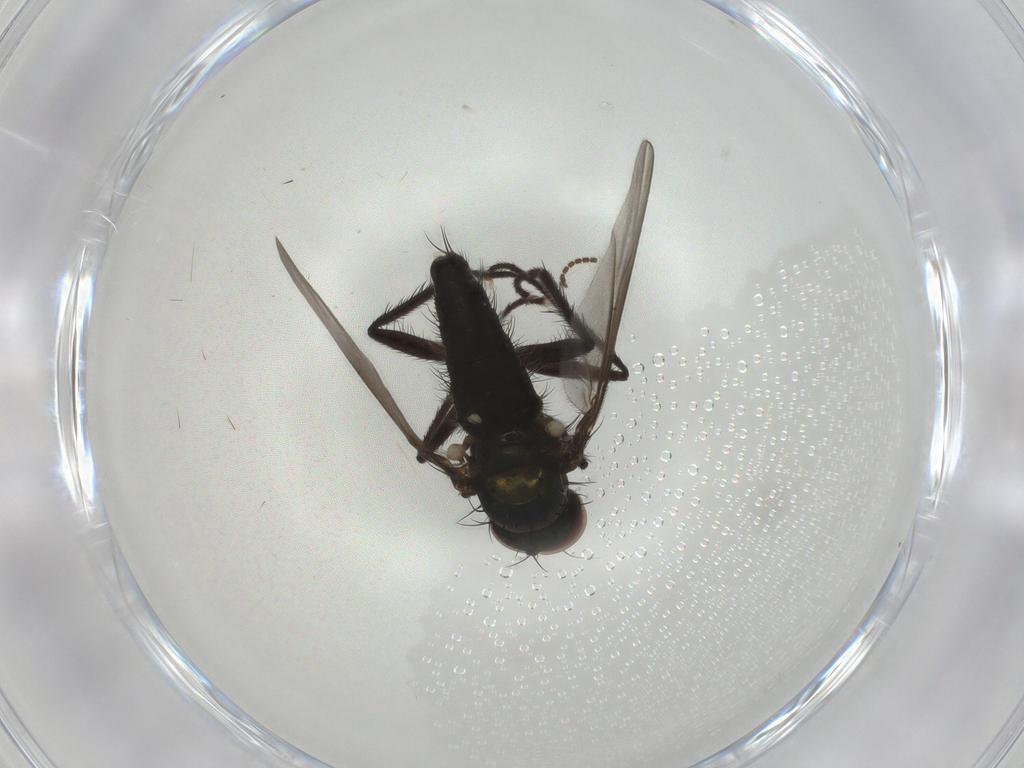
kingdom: Animalia
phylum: Arthropoda
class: Insecta
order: Diptera
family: Dolichopodidae
